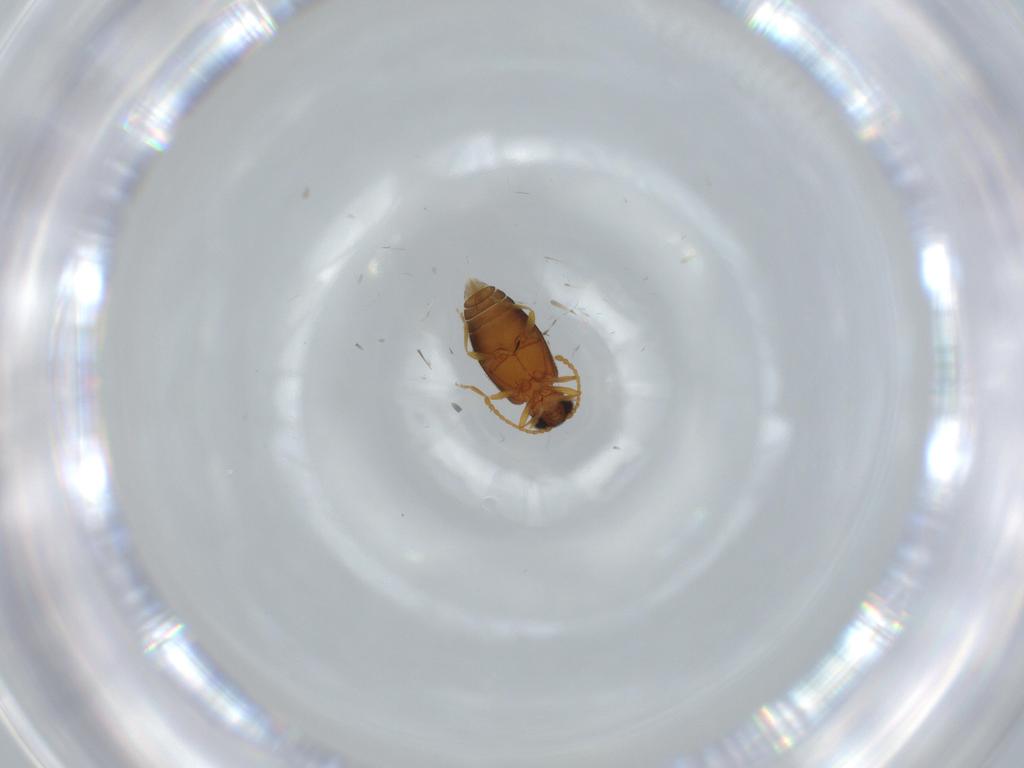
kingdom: Animalia
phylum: Arthropoda
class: Insecta
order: Coleoptera
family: Aderidae
